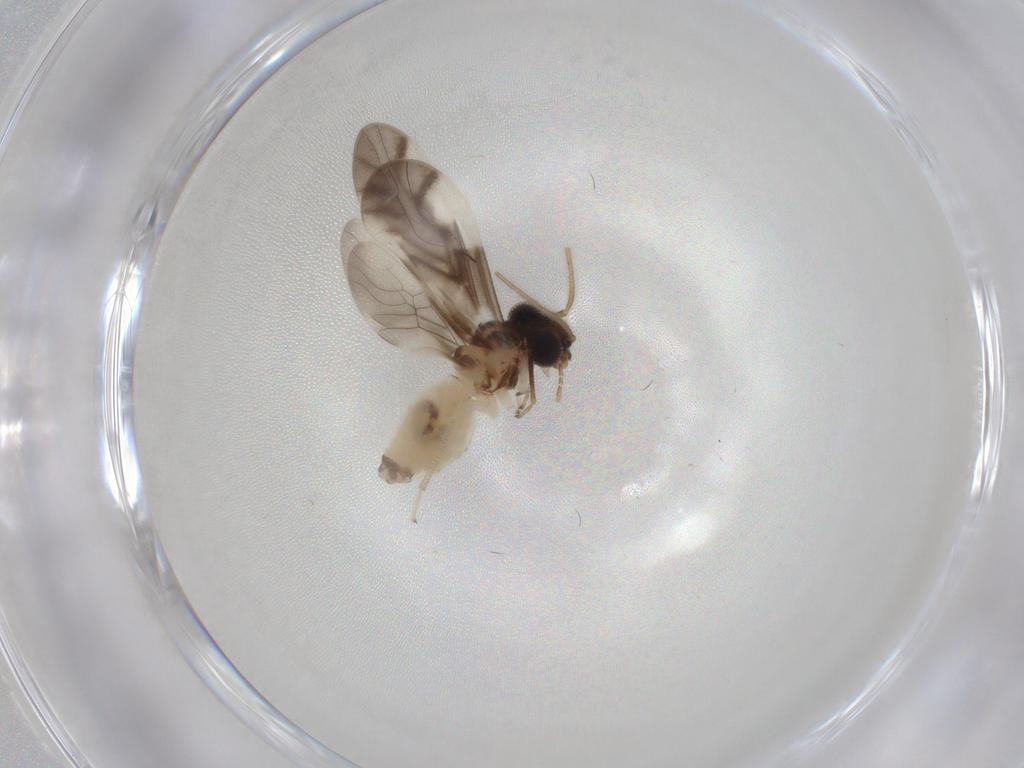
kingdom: Animalia
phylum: Arthropoda
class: Insecta
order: Psocodea
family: Caeciliusidae
